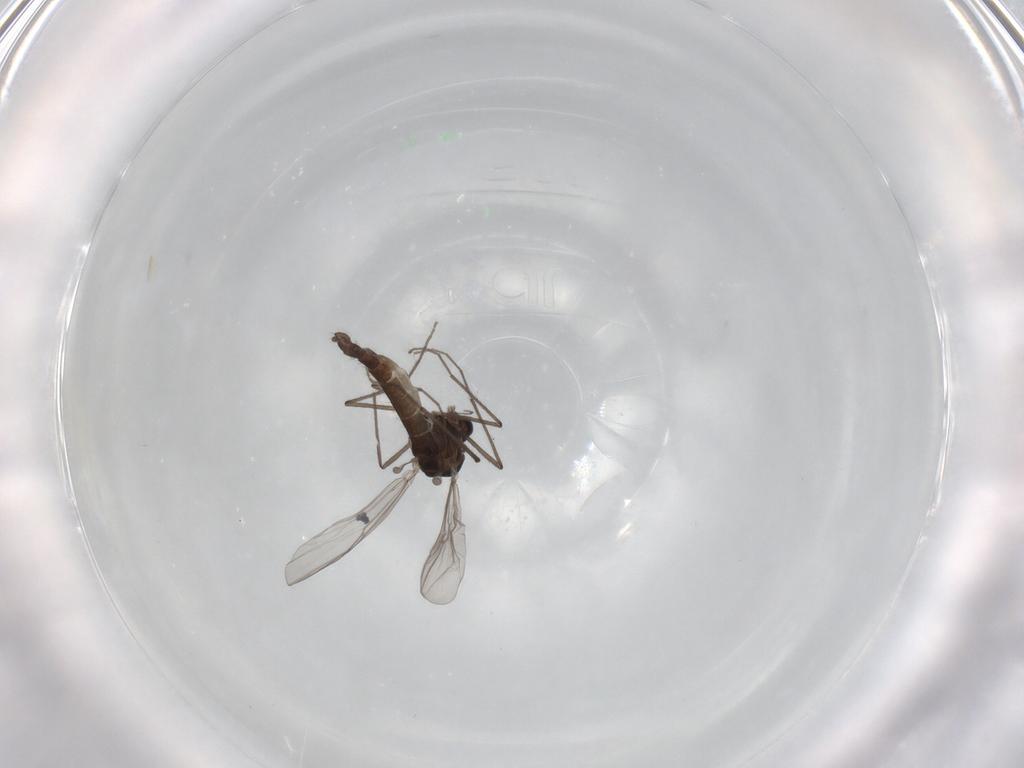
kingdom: Animalia
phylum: Arthropoda
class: Insecta
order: Diptera
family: Chironomidae
